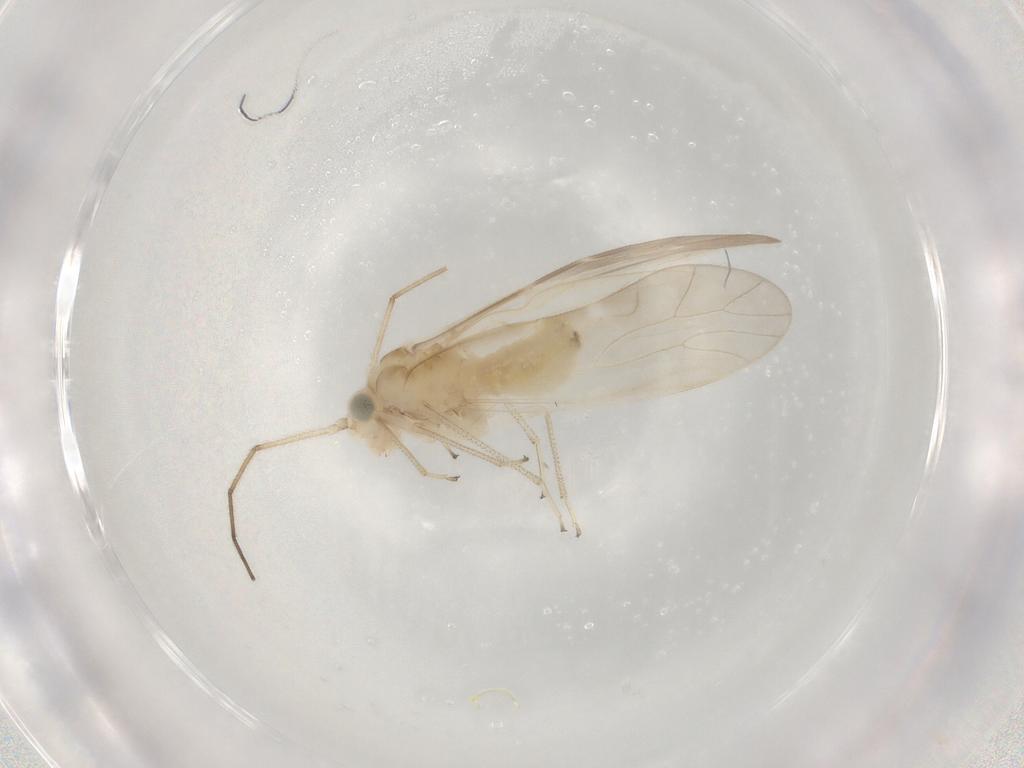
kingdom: Animalia
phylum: Arthropoda
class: Insecta
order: Psocodea
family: Caeciliusidae
